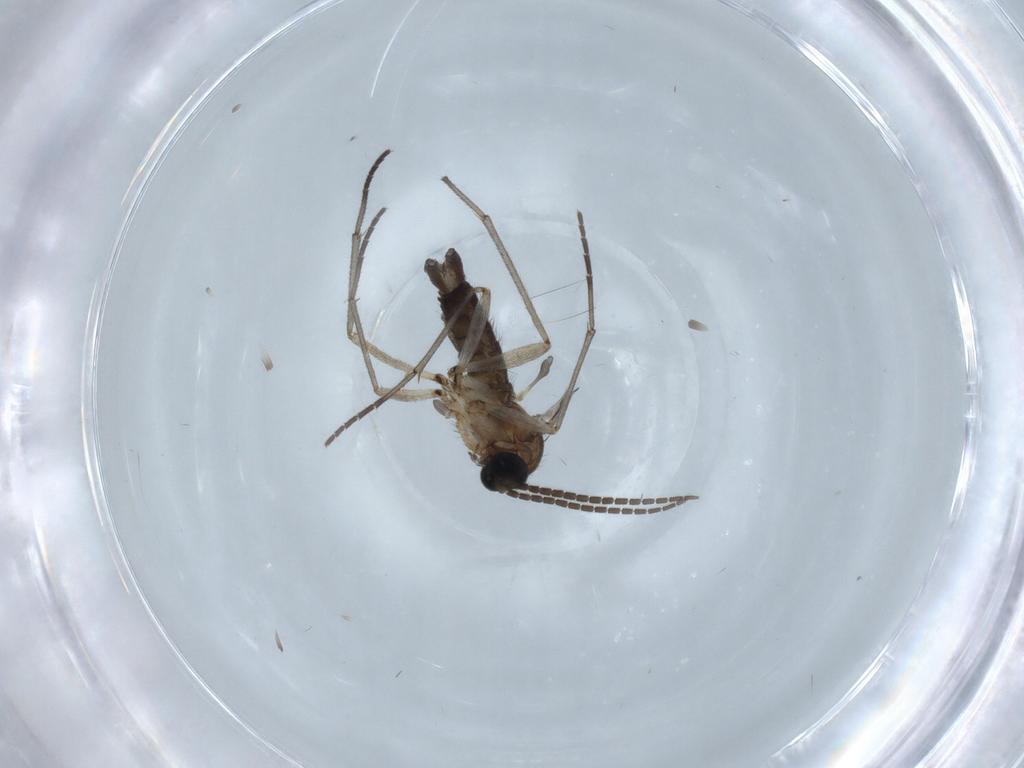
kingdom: Animalia
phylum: Arthropoda
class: Insecta
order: Diptera
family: Sciaridae
